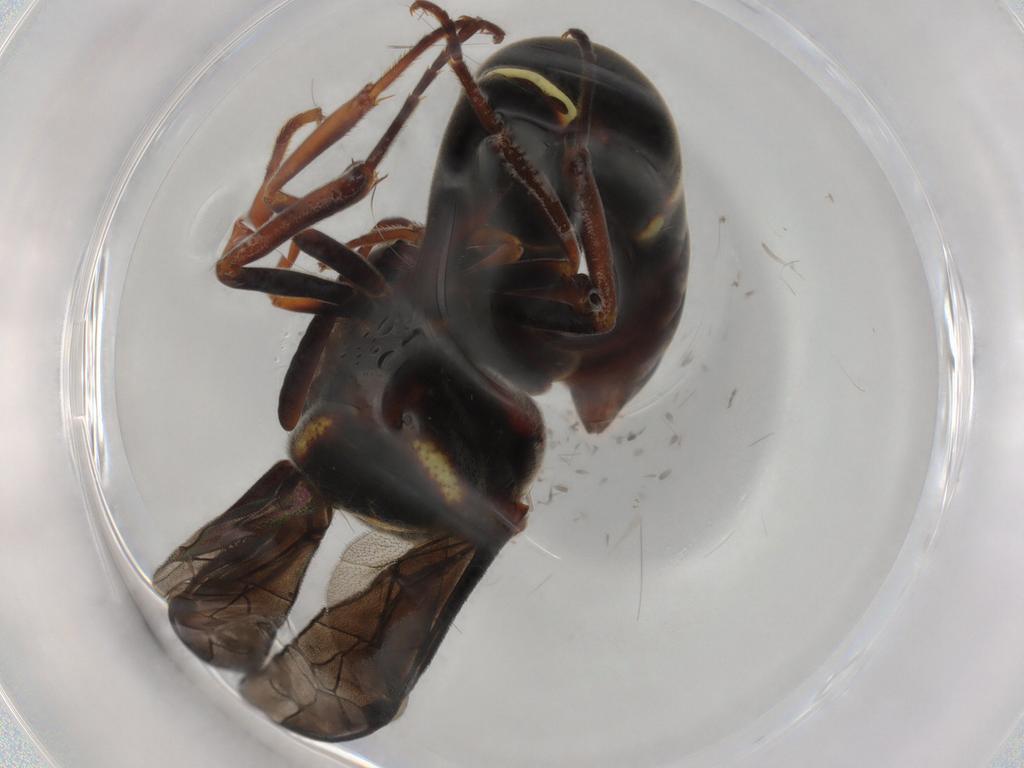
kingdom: Animalia
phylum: Arthropoda
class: Insecta
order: Hymenoptera
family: Vespidae
